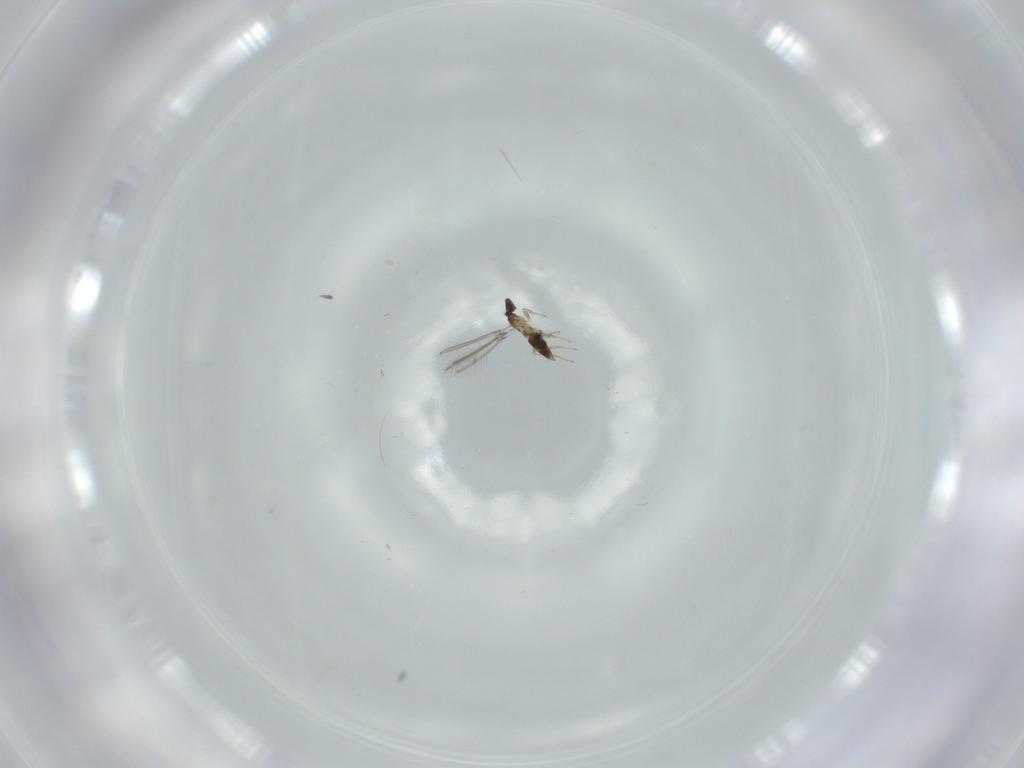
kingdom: Animalia
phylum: Arthropoda
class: Insecta
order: Hymenoptera
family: Mymaridae
